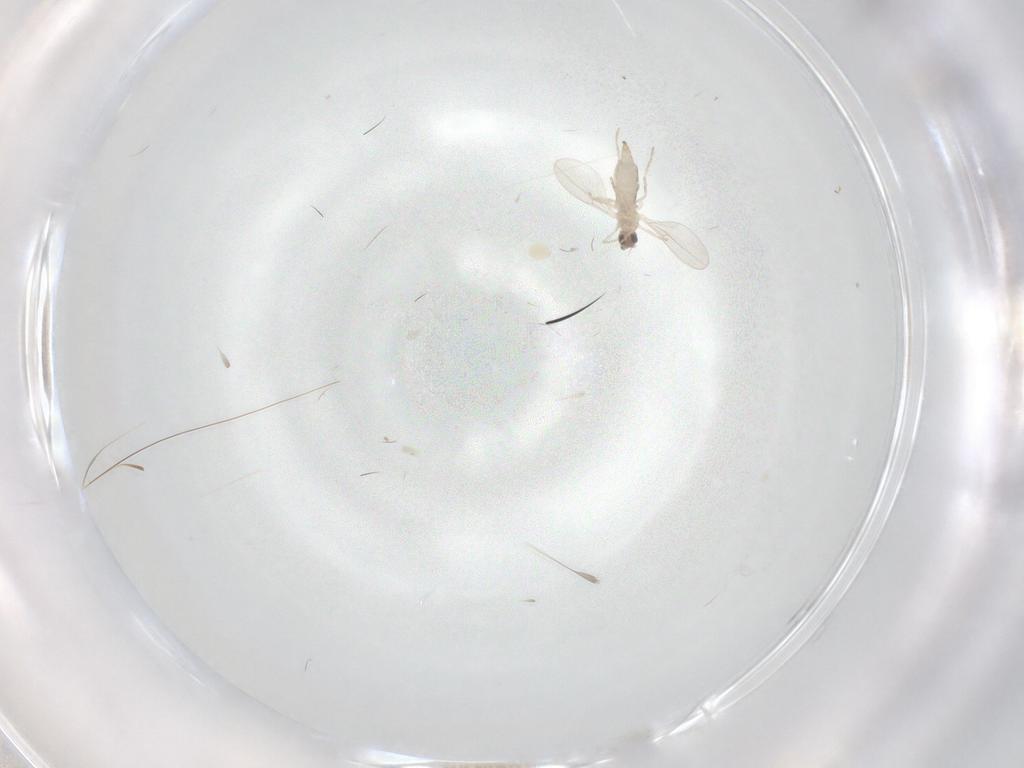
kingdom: Animalia
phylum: Arthropoda
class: Insecta
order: Diptera
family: Cecidomyiidae
